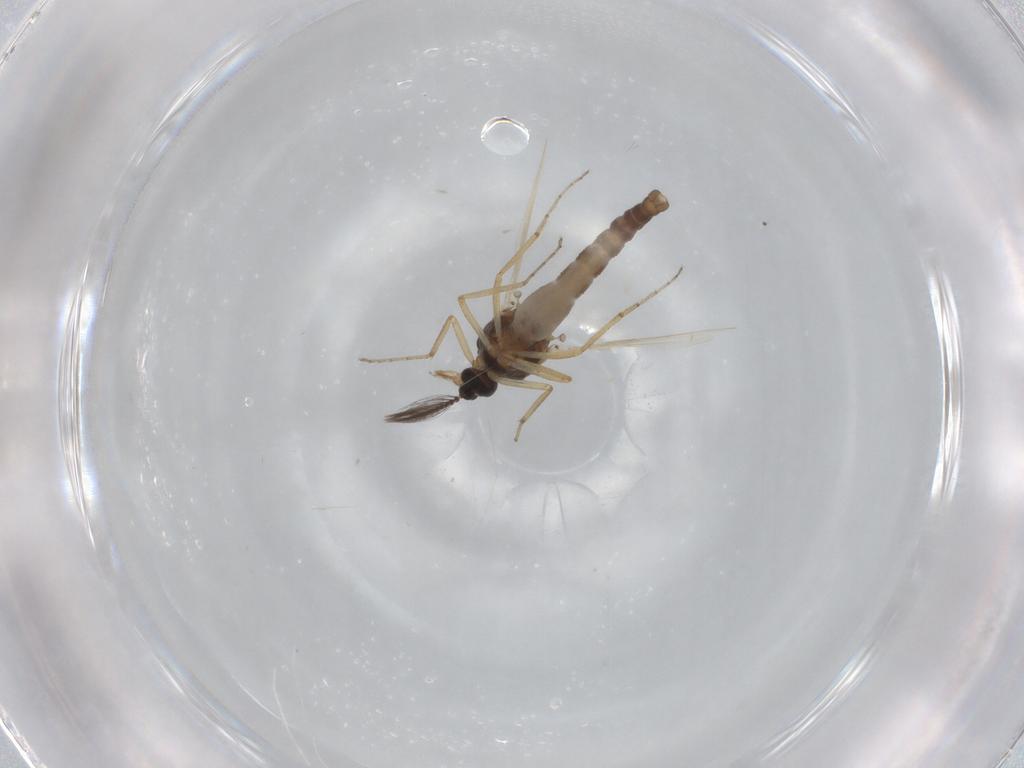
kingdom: Animalia
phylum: Arthropoda
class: Insecta
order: Diptera
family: Ceratopogonidae
